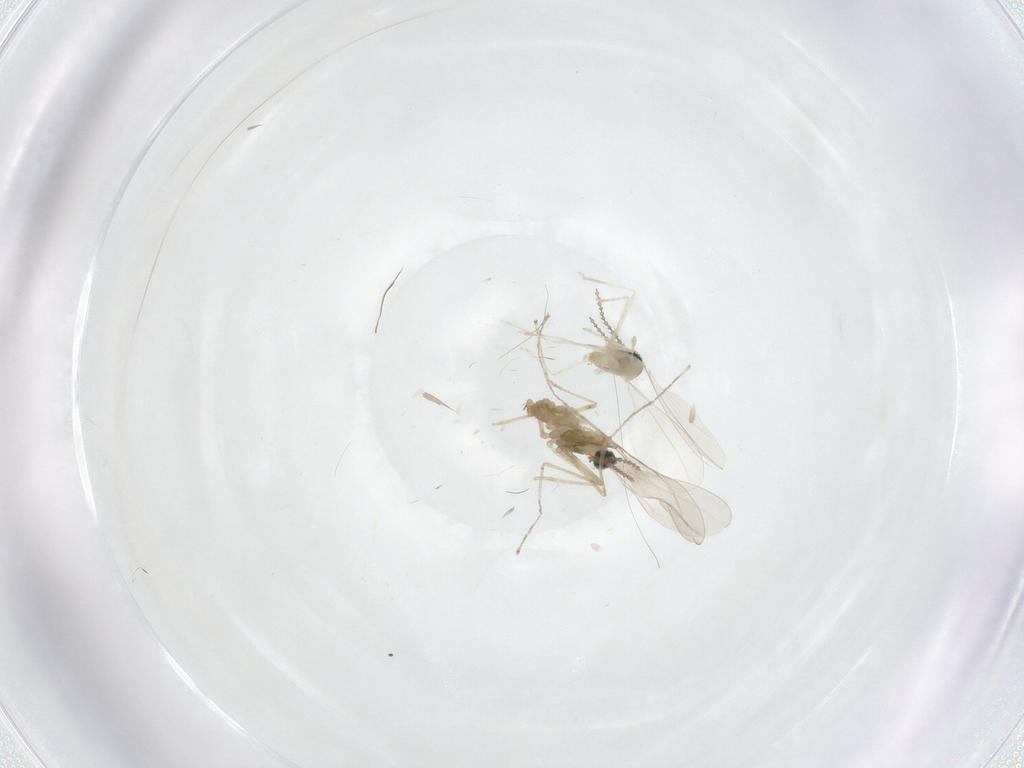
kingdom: Animalia
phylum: Arthropoda
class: Insecta
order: Diptera
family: Cecidomyiidae
